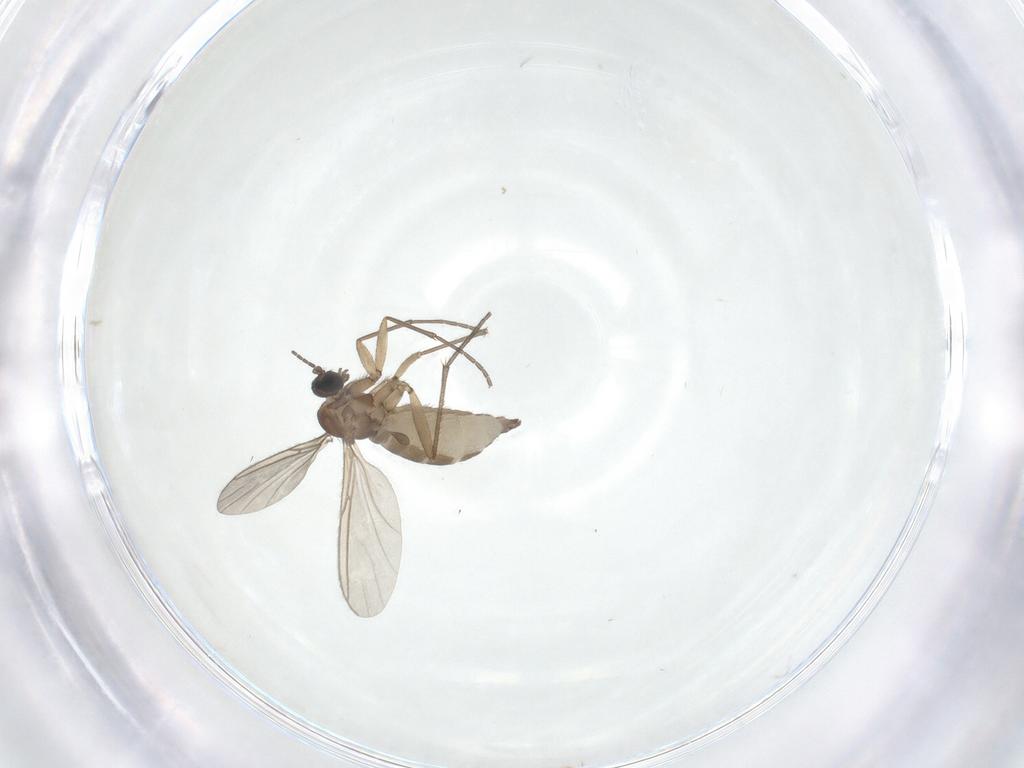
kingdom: Animalia
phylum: Arthropoda
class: Insecta
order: Diptera
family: Sciaridae
